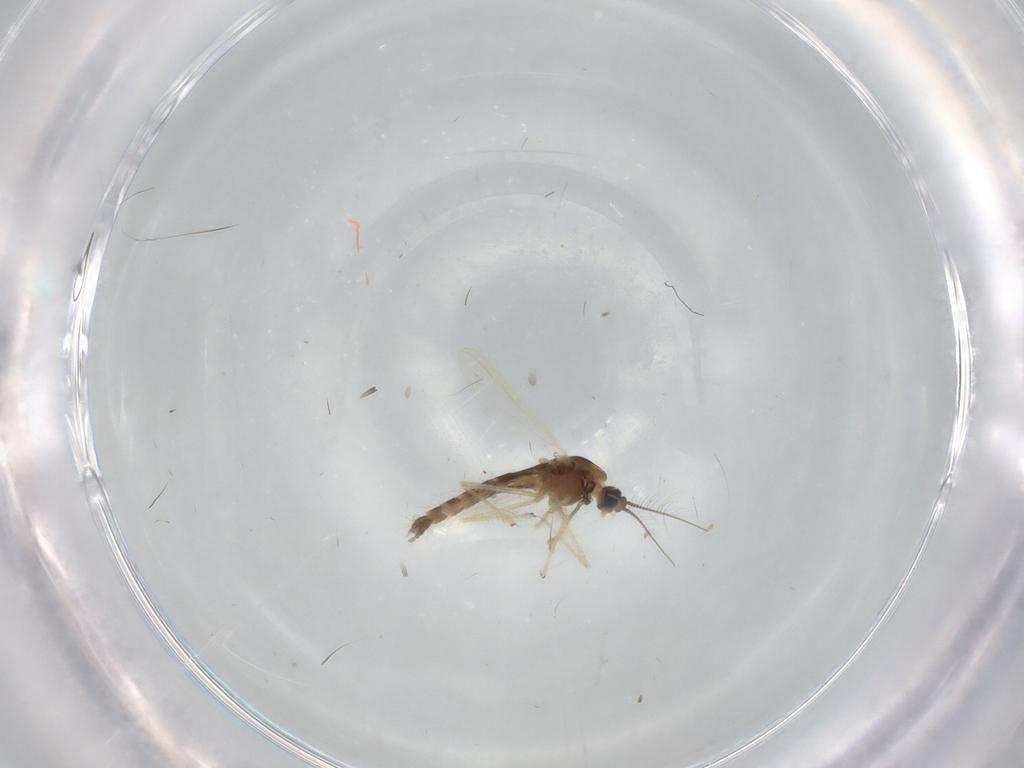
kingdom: Animalia
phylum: Arthropoda
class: Insecta
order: Diptera
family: Chironomidae
